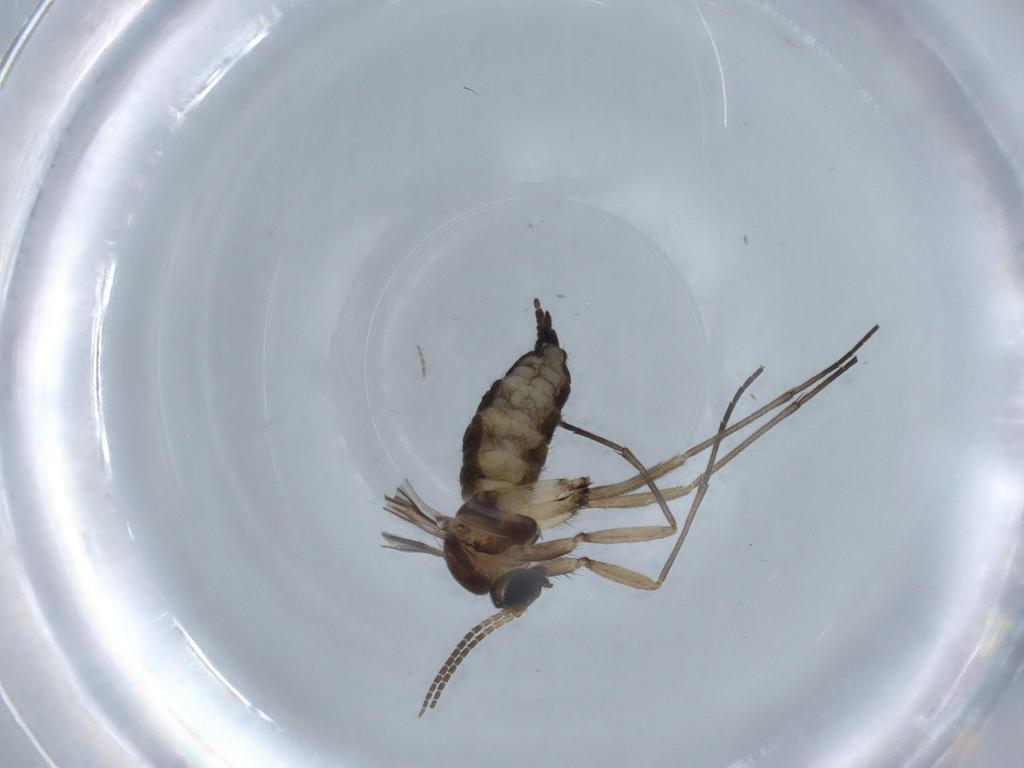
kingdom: Animalia
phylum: Arthropoda
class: Insecta
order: Diptera
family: Sciaridae
